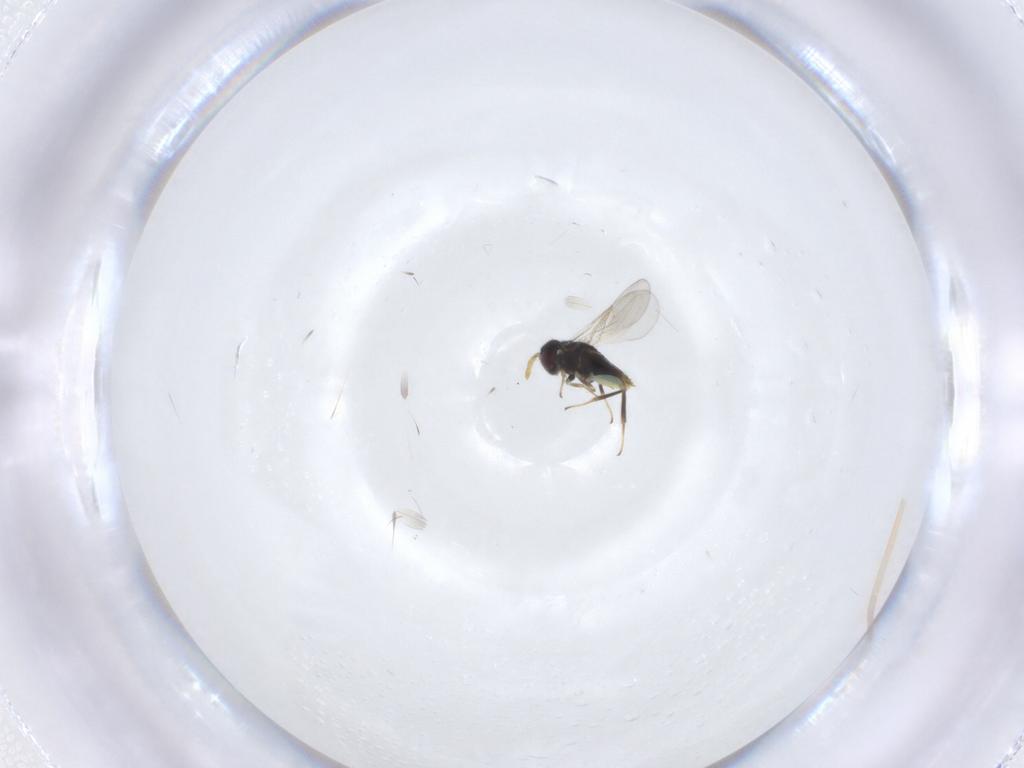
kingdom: Animalia
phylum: Arthropoda
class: Insecta
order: Hymenoptera
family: Aphelinidae
